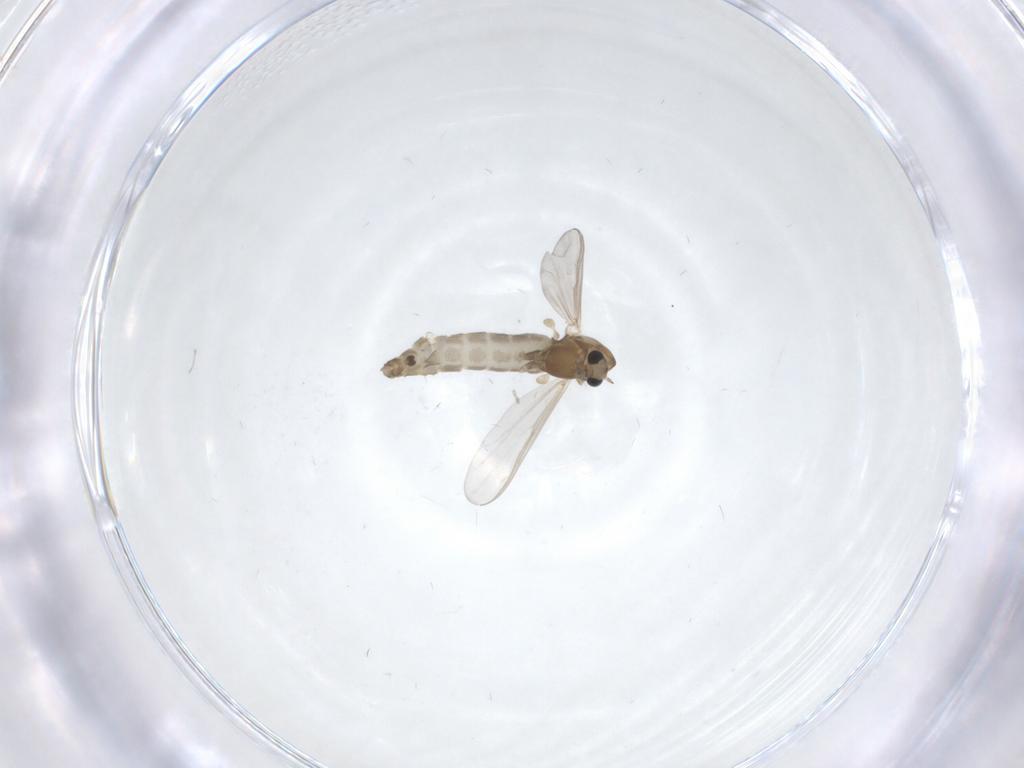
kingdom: Animalia
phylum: Arthropoda
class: Insecta
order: Diptera
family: Chironomidae
